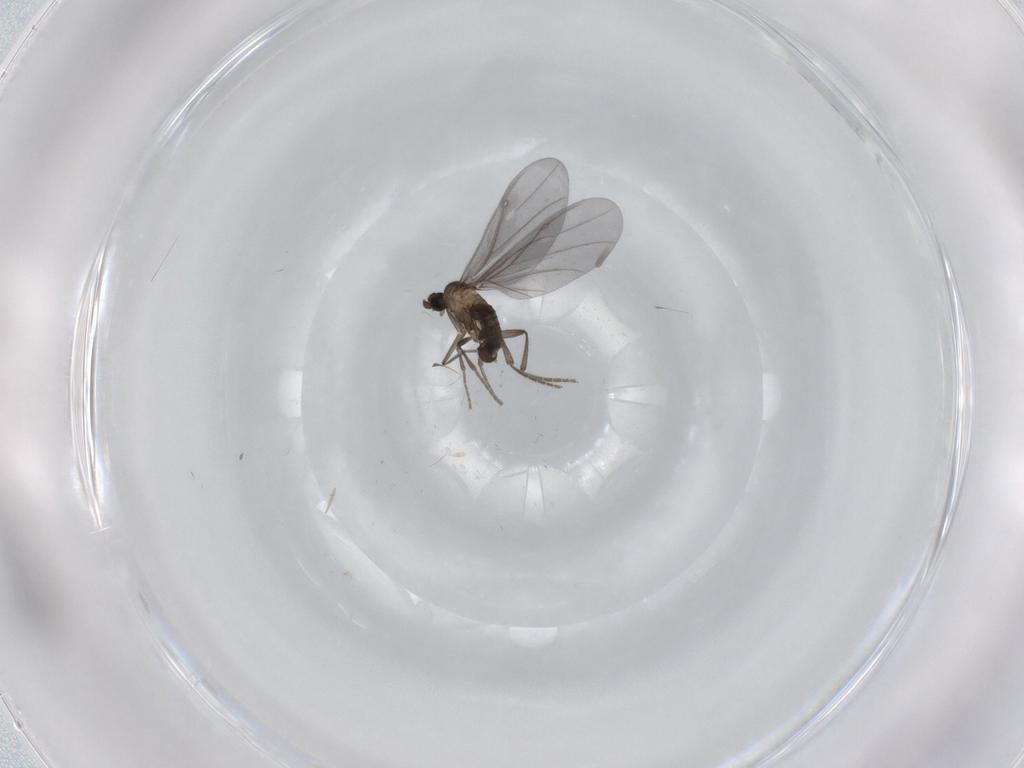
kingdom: Animalia
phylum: Arthropoda
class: Insecta
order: Diptera
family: Phoridae
